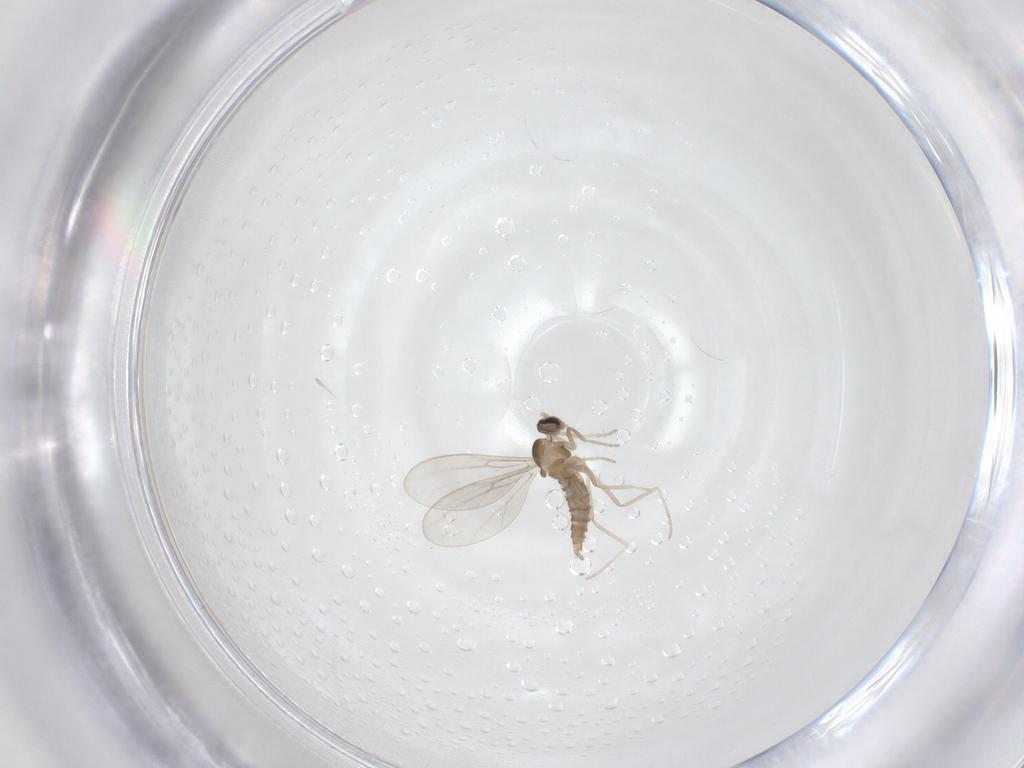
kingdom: Animalia
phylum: Arthropoda
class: Insecta
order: Diptera
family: Cecidomyiidae
